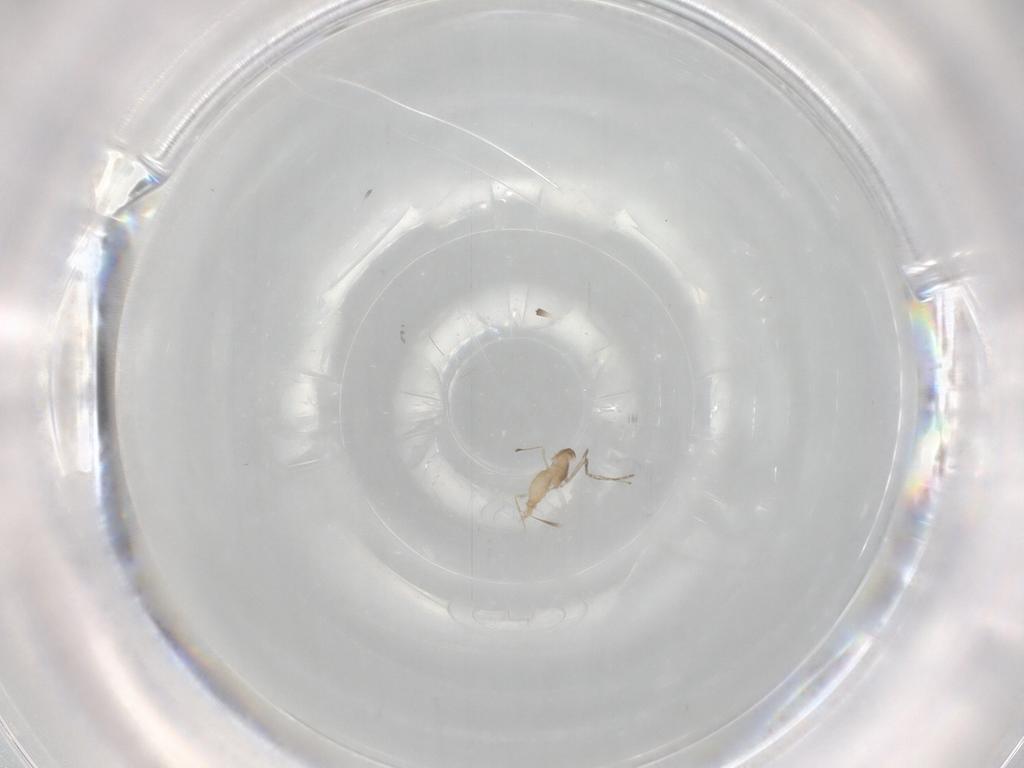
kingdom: Animalia
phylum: Arthropoda
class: Insecta
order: Diptera
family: Cecidomyiidae
